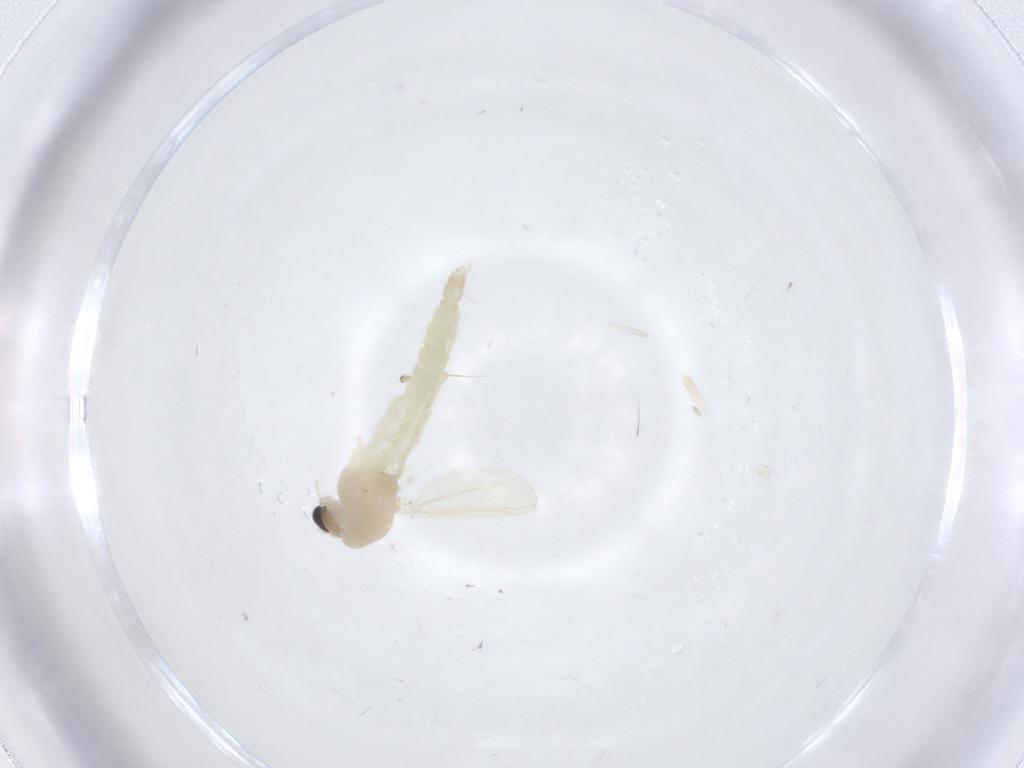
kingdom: Animalia
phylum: Arthropoda
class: Insecta
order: Diptera
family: Chironomidae
